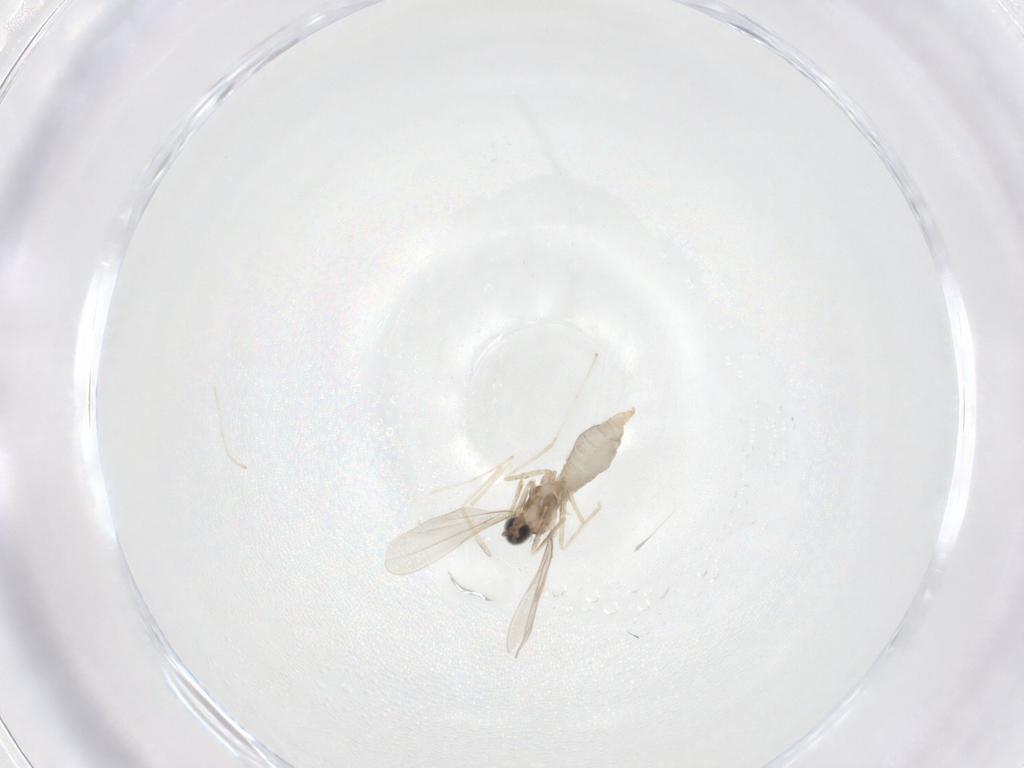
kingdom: Animalia
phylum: Arthropoda
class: Insecta
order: Diptera
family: Cecidomyiidae
